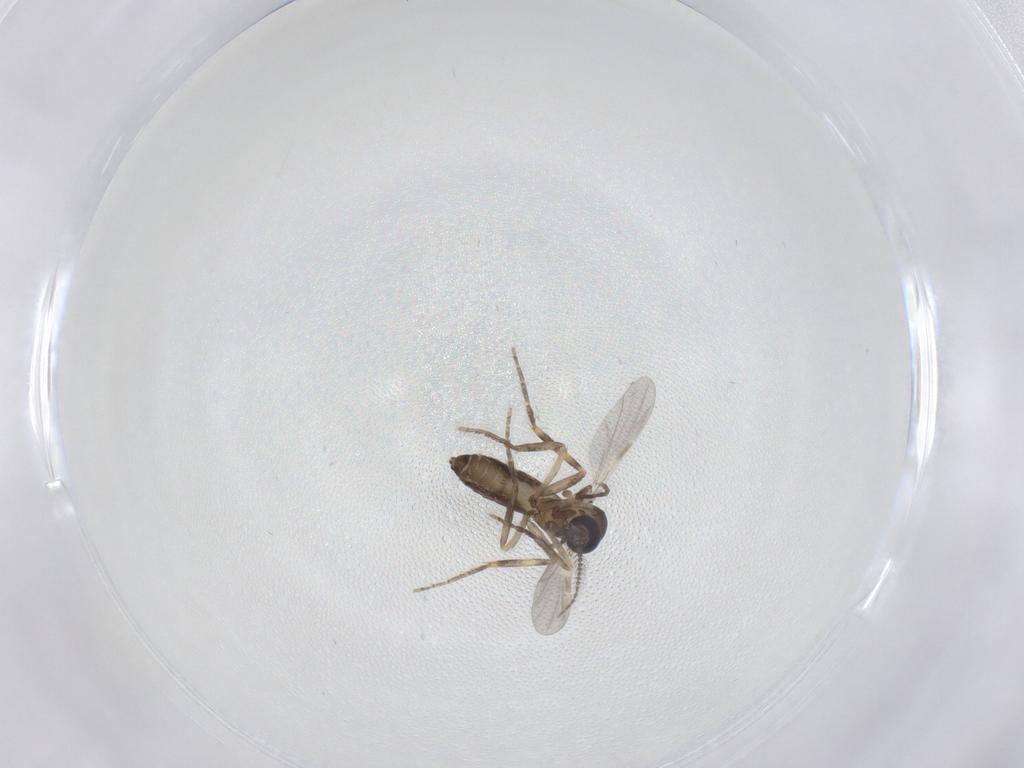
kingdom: Animalia
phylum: Arthropoda
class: Insecta
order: Diptera
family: Ceratopogonidae
